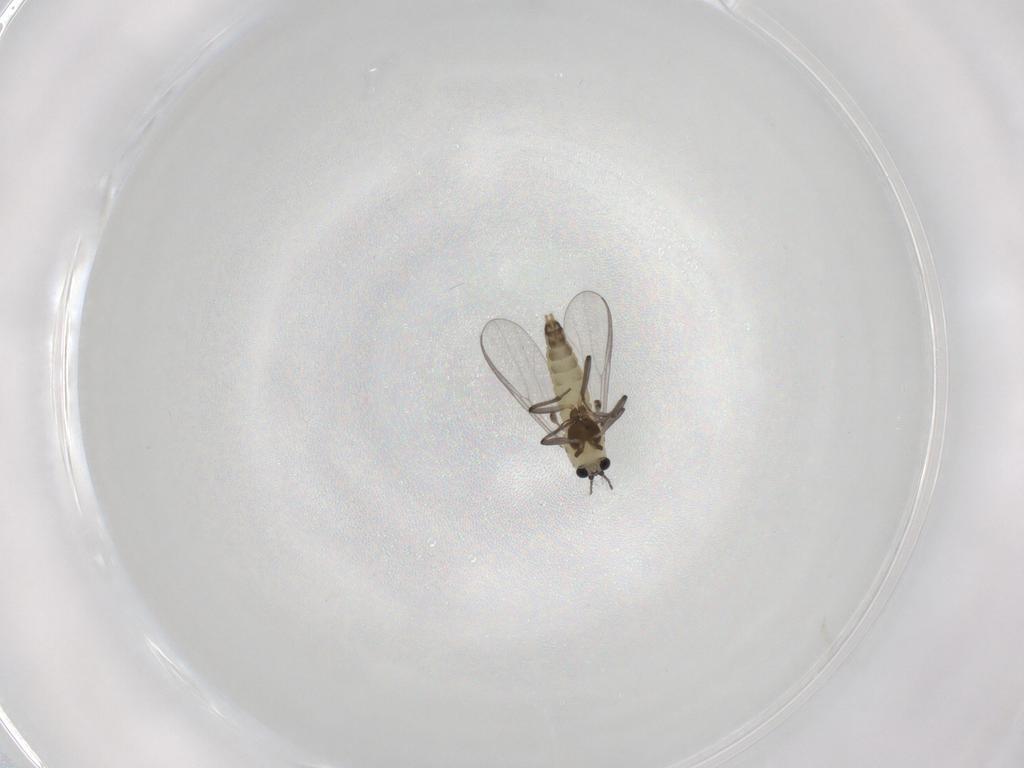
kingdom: Animalia
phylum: Arthropoda
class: Insecta
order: Diptera
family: Chironomidae
